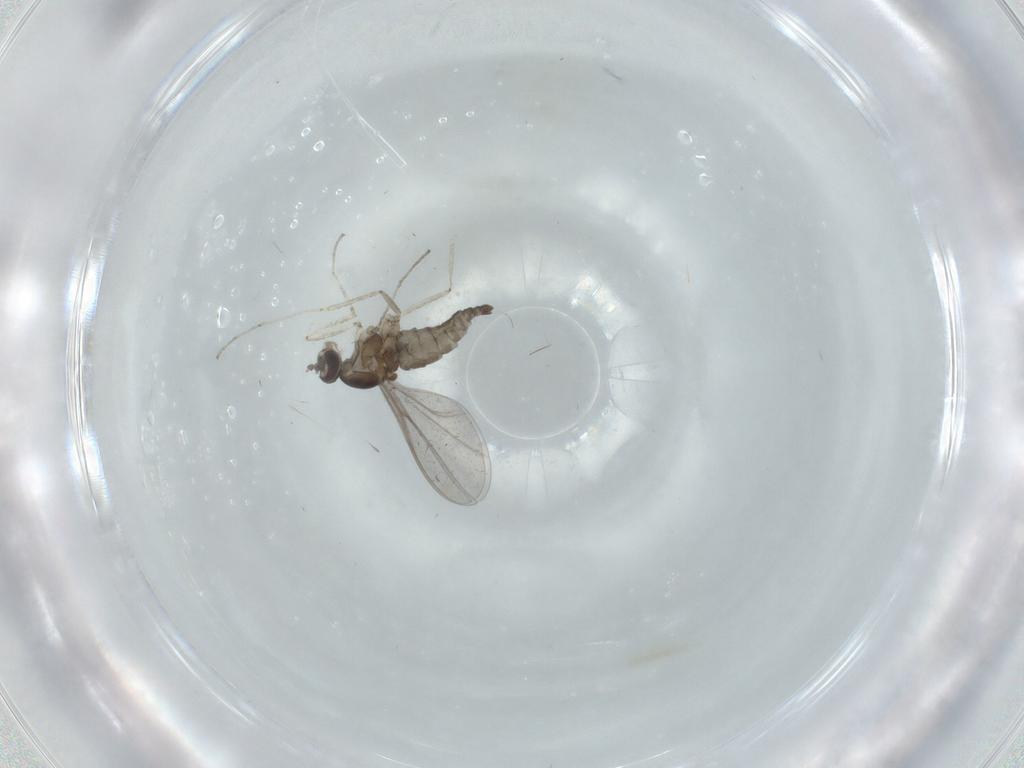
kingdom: Animalia
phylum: Arthropoda
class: Insecta
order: Diptera
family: Cecidomyiidae
